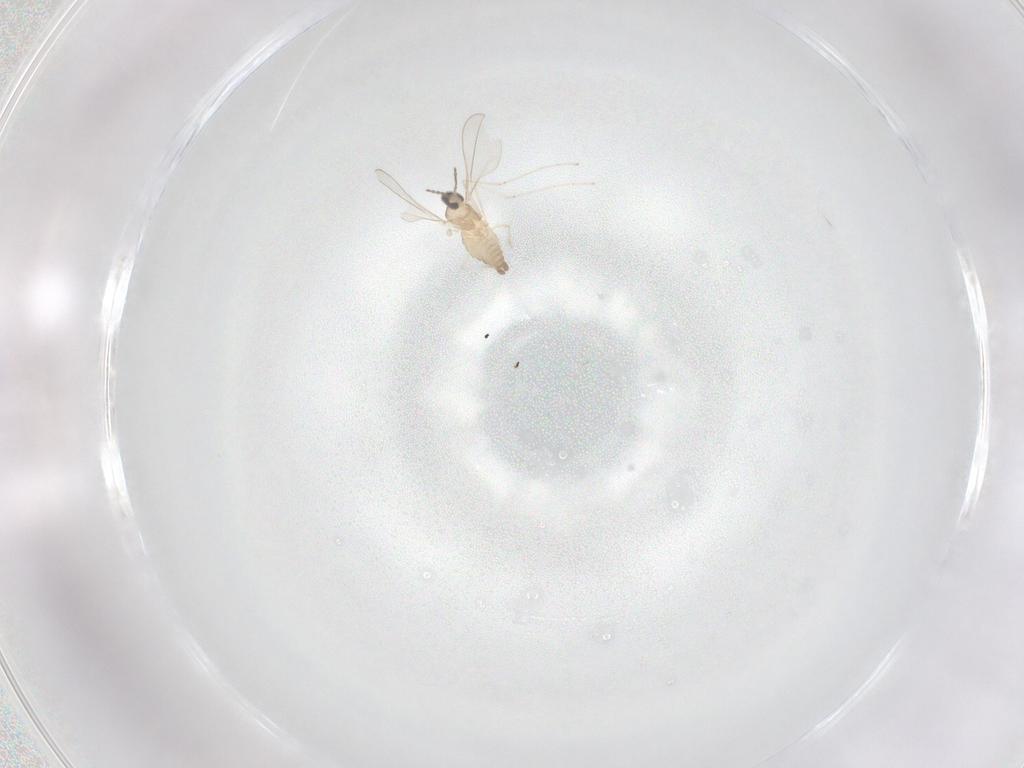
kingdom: Animalia
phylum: Arthropoda
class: Insecta
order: Diptera
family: Cecidomyiidae
